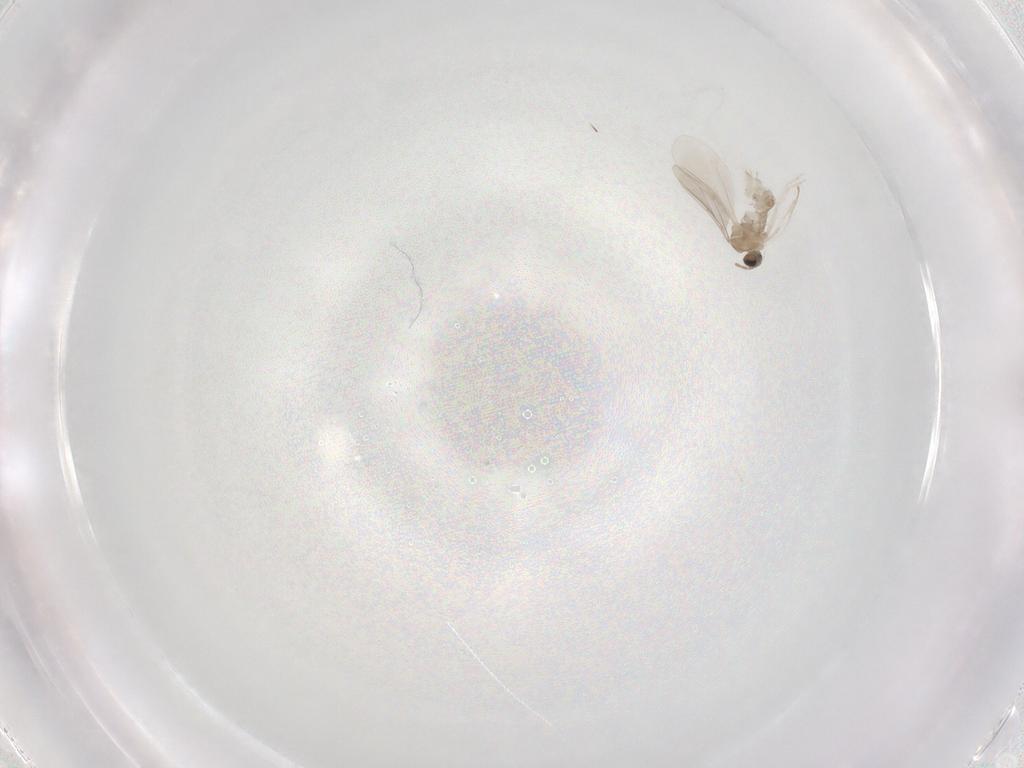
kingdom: Animalia
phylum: Arthropoda
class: Insecta
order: Diptera
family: Cecidomyiidae
